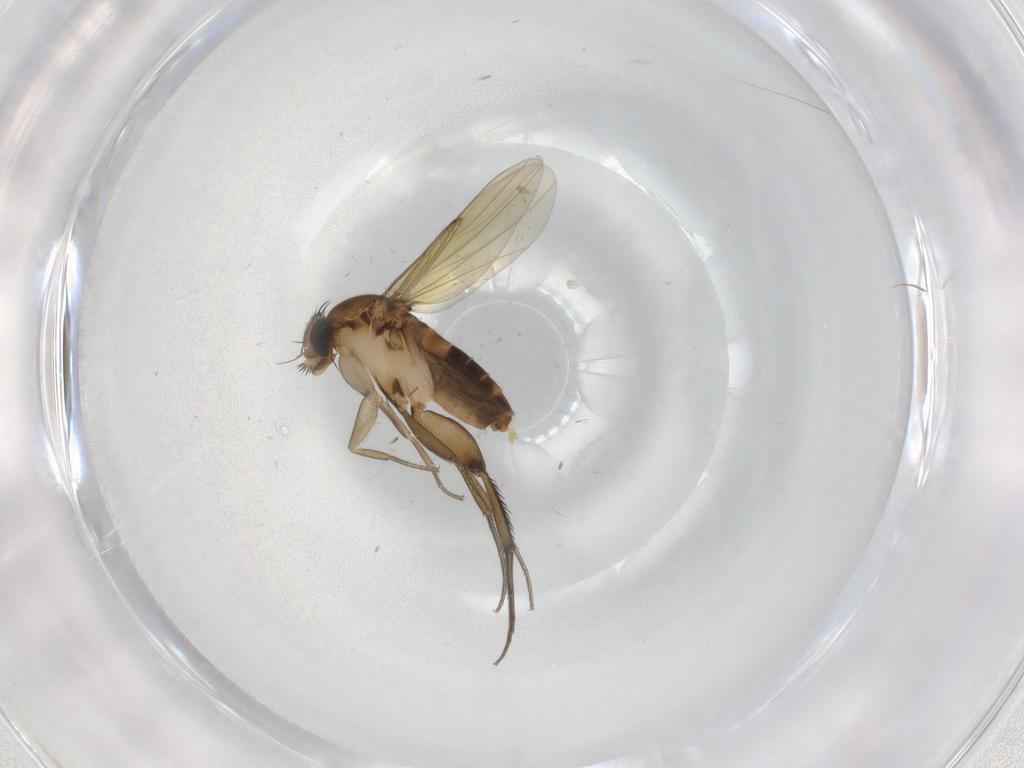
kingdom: Animalia
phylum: Arthropoda
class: Insecta
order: Diptera
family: Phoridae
